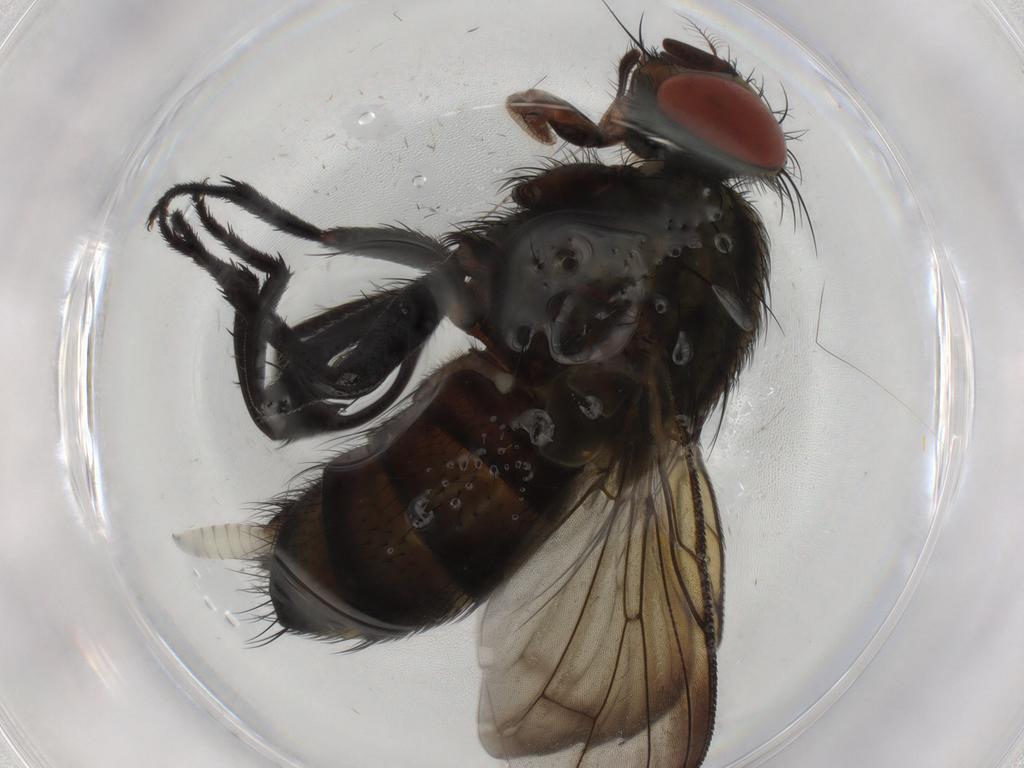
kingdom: Animalia
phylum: Arthropoda
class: Insecta
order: Diptera
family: Sarcophagidae
